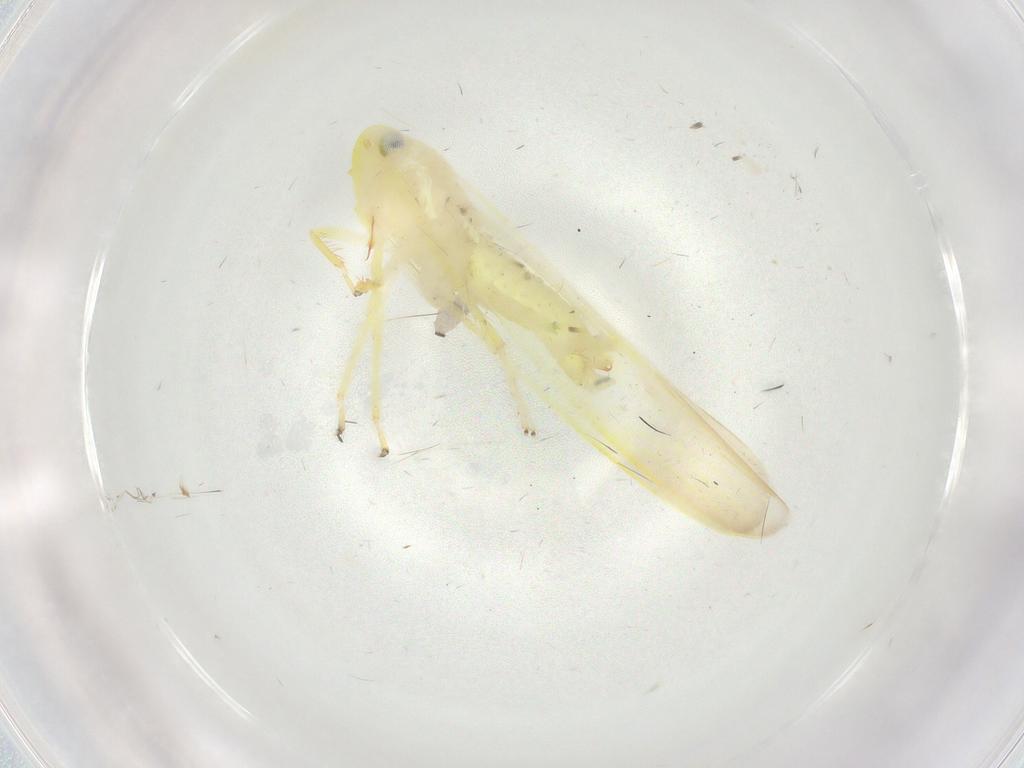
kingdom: Animalia
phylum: Arthropoda
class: Insecta
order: Hemiptera
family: Cicadellidae
